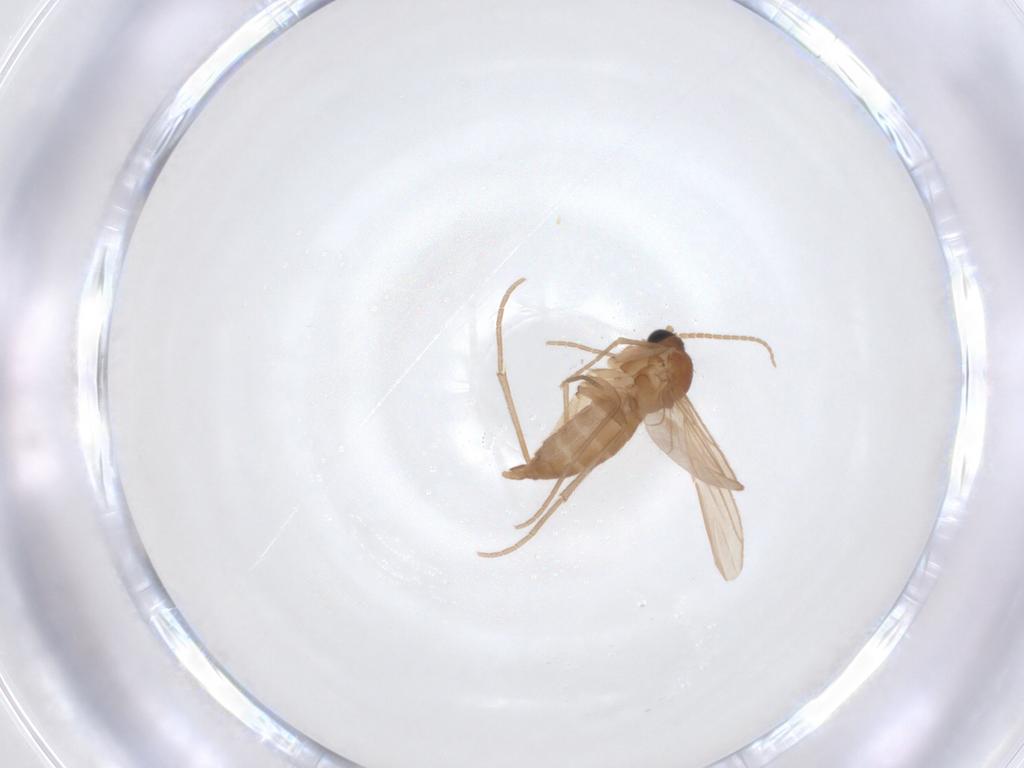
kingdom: Animalia
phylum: Arthropoda
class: Insecta
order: Diptera
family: Sciaridae
